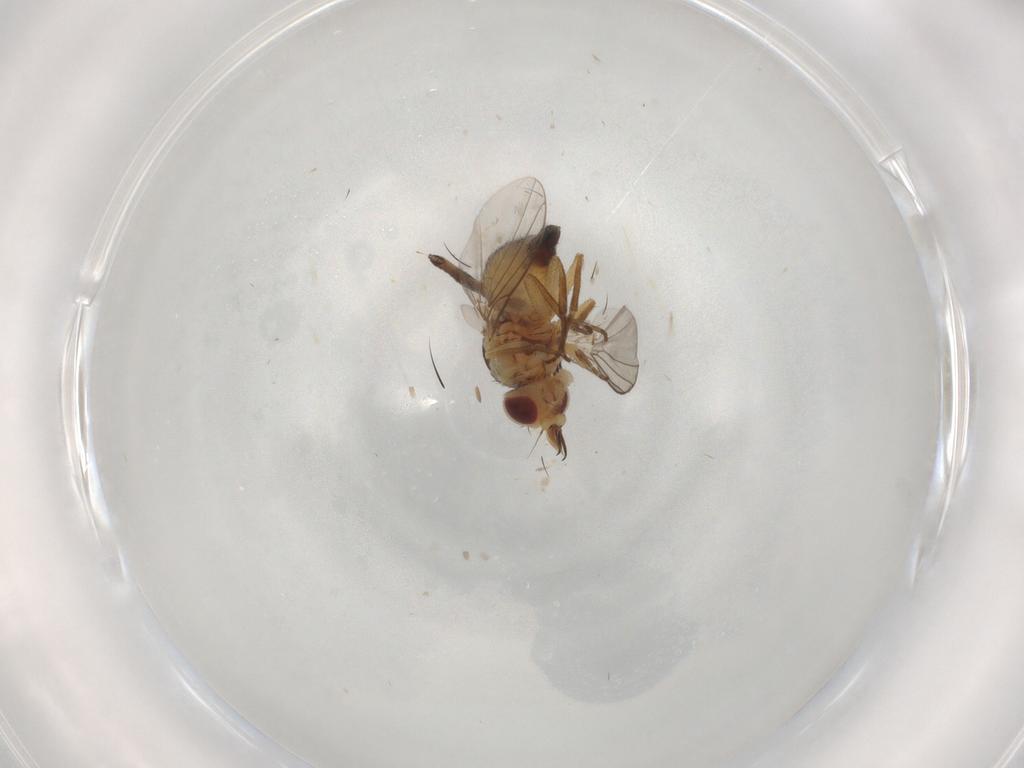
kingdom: Animalia
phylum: Arthropoda
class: Insecta
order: Diptera
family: Agromyzidae
